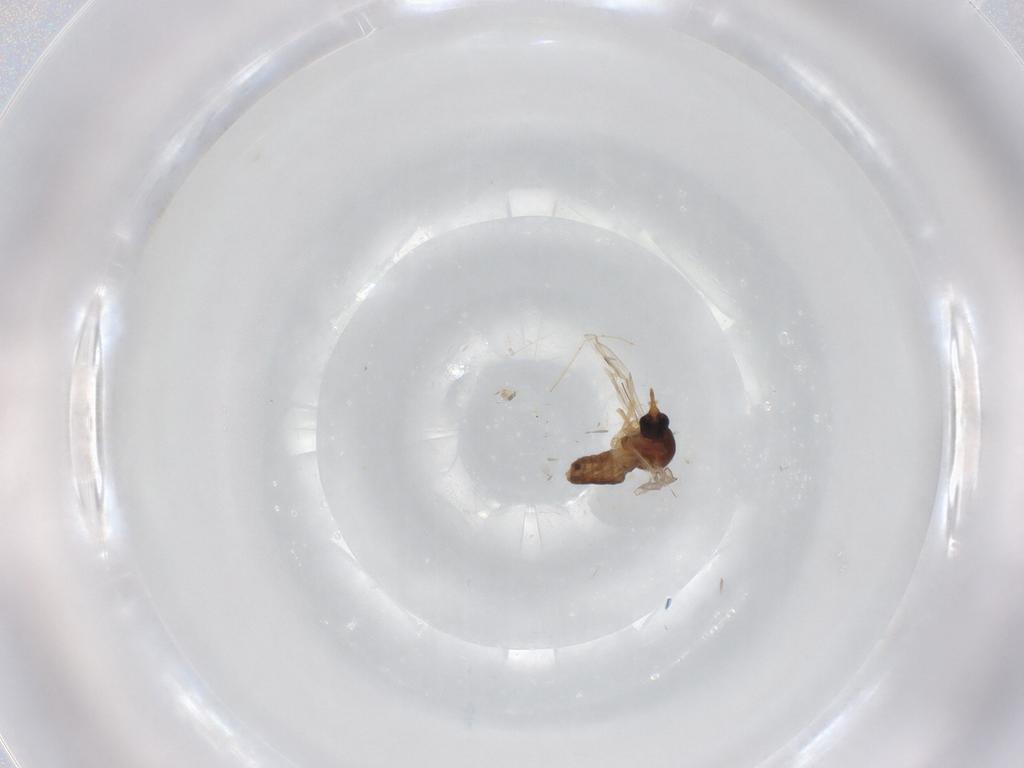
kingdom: Animalia
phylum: Arthropoda
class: Insecta
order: Diptera
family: Ceratopogonidae
